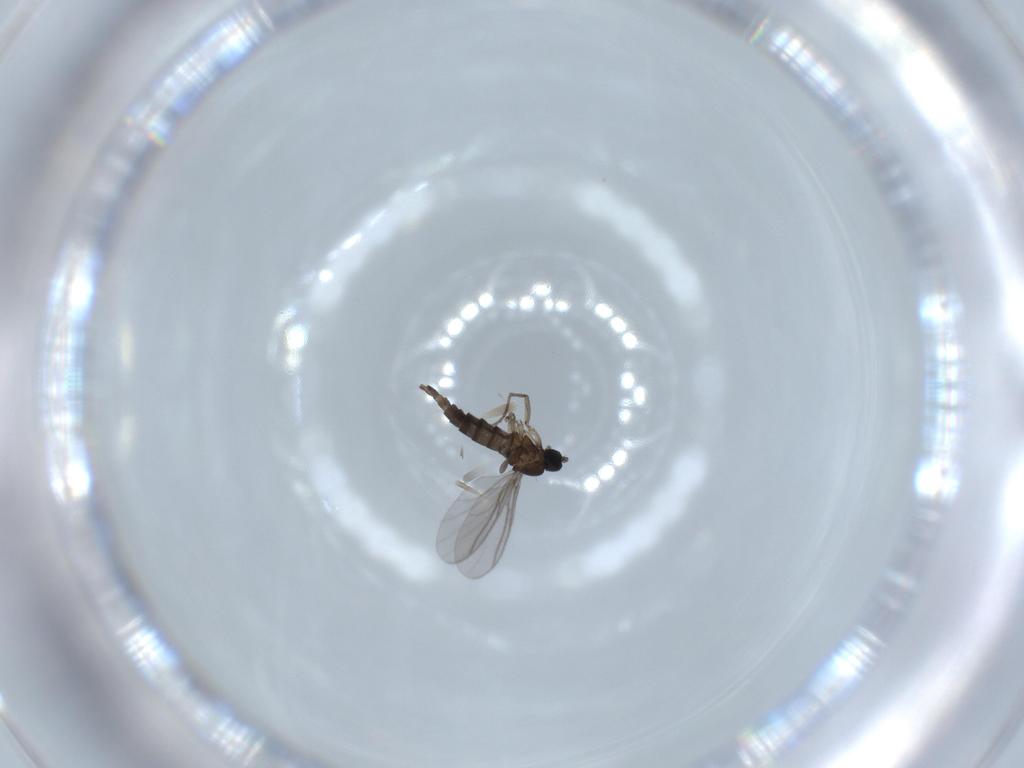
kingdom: Animalia
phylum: Arthropoda
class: Insecta
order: Diptera
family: Chironomidae
